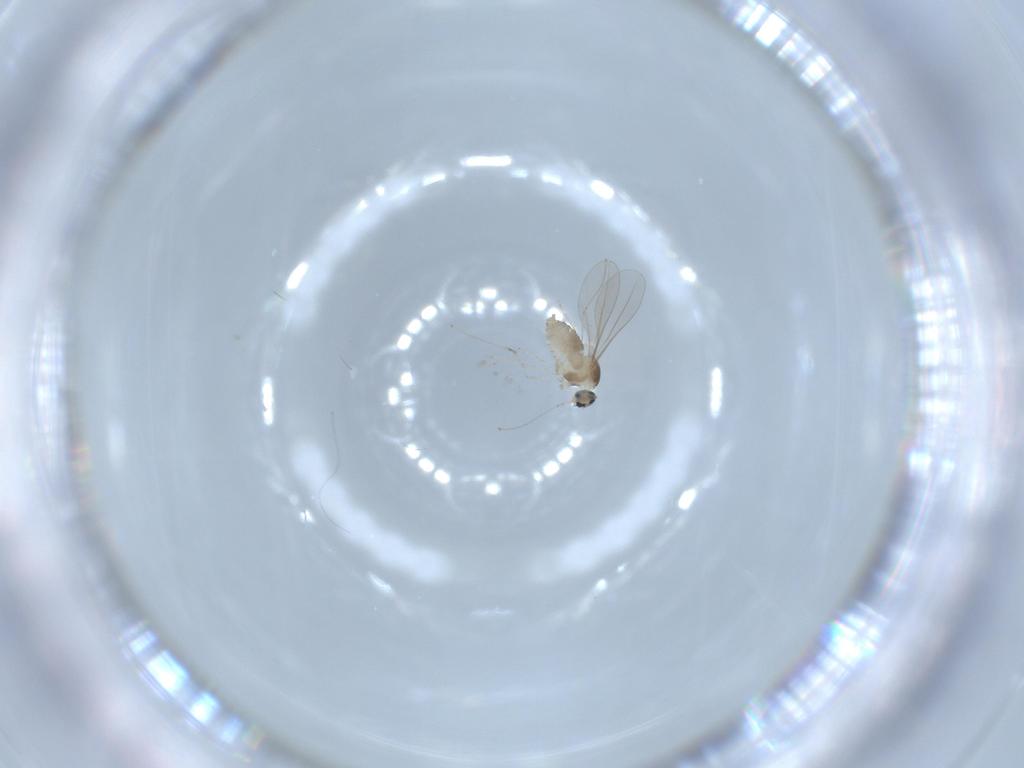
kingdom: Animalia
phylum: Arthropoda
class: Insecta
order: Diptera
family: Cecidomyiidae
